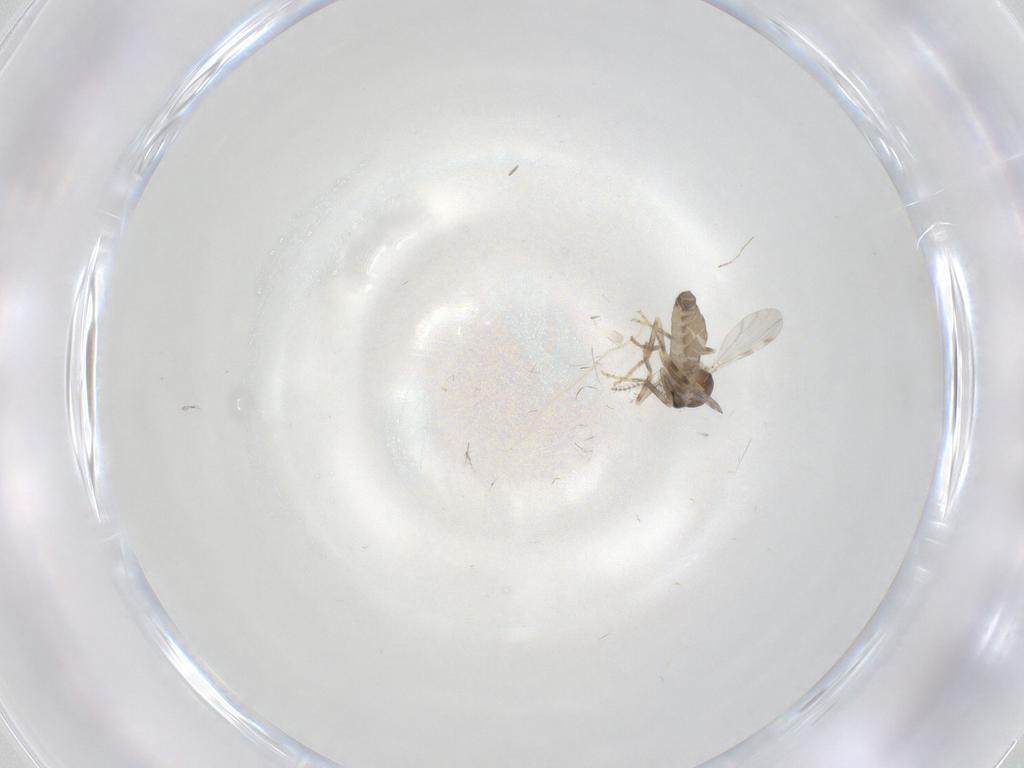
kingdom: Animalia
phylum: Arthropoda
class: Insecta
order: Diptera
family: Ceratopogonidae
